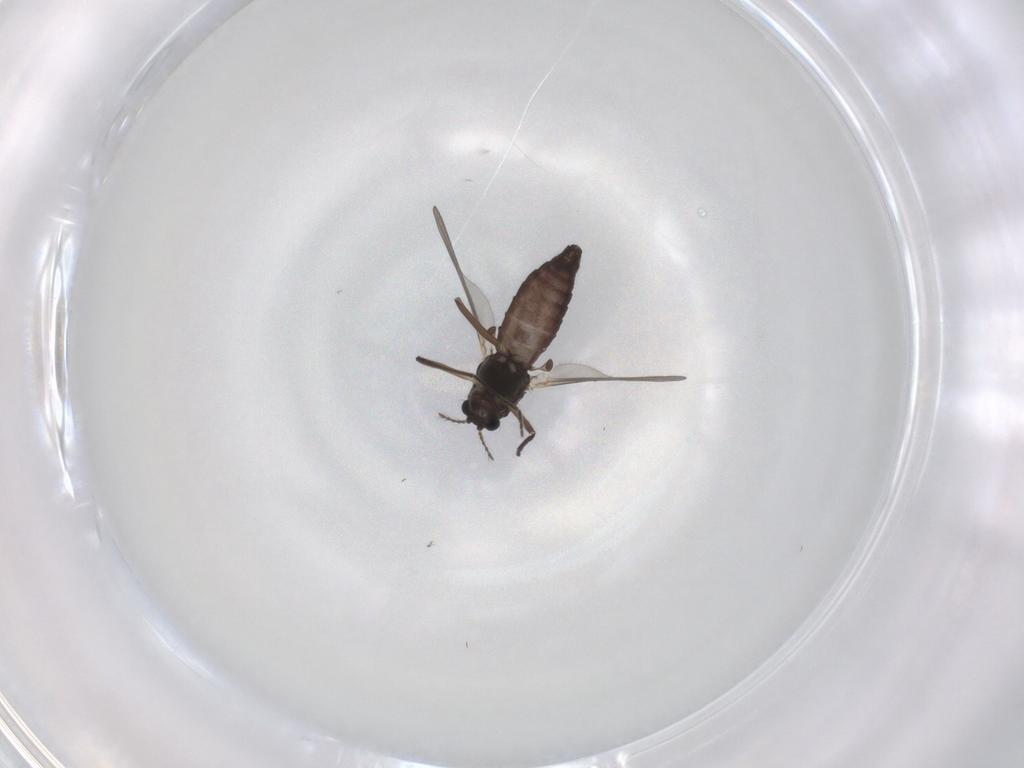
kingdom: Animalia
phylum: Arthropoda
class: Insecta
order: Diptera
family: Chironomidae
